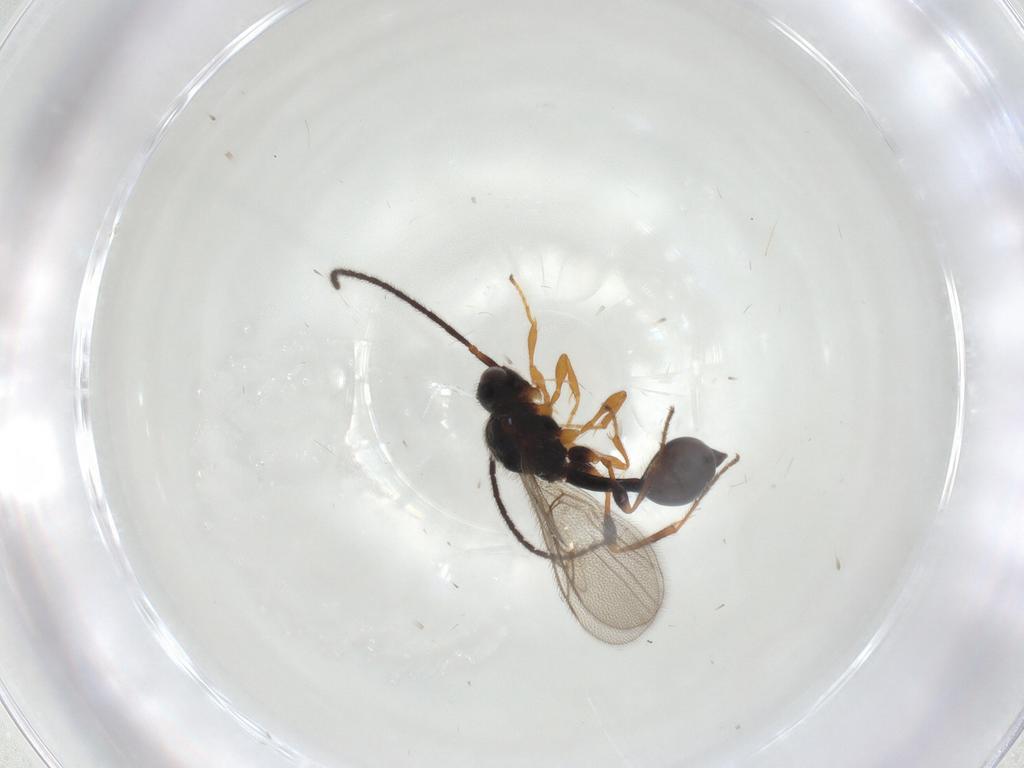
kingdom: Animalia
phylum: Arthropoda
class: Insecta
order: Hymenoptera
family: Diapriidae
